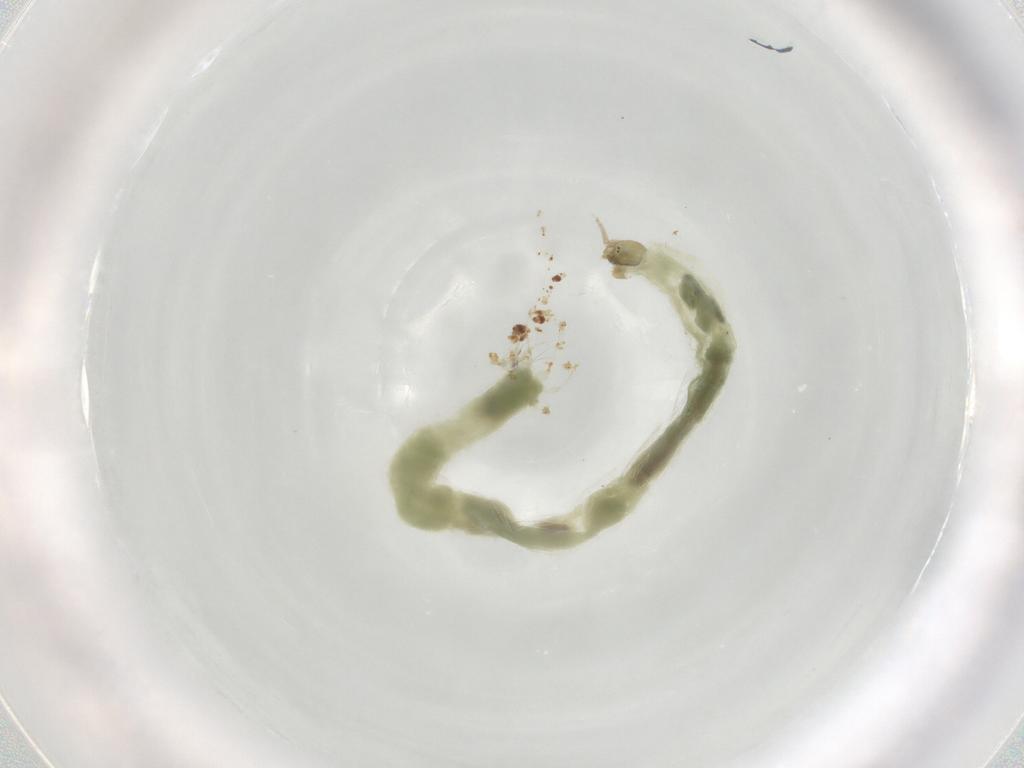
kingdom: Animalia
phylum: Arthropoda
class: Insecta
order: Diptera
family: Chironomidae
